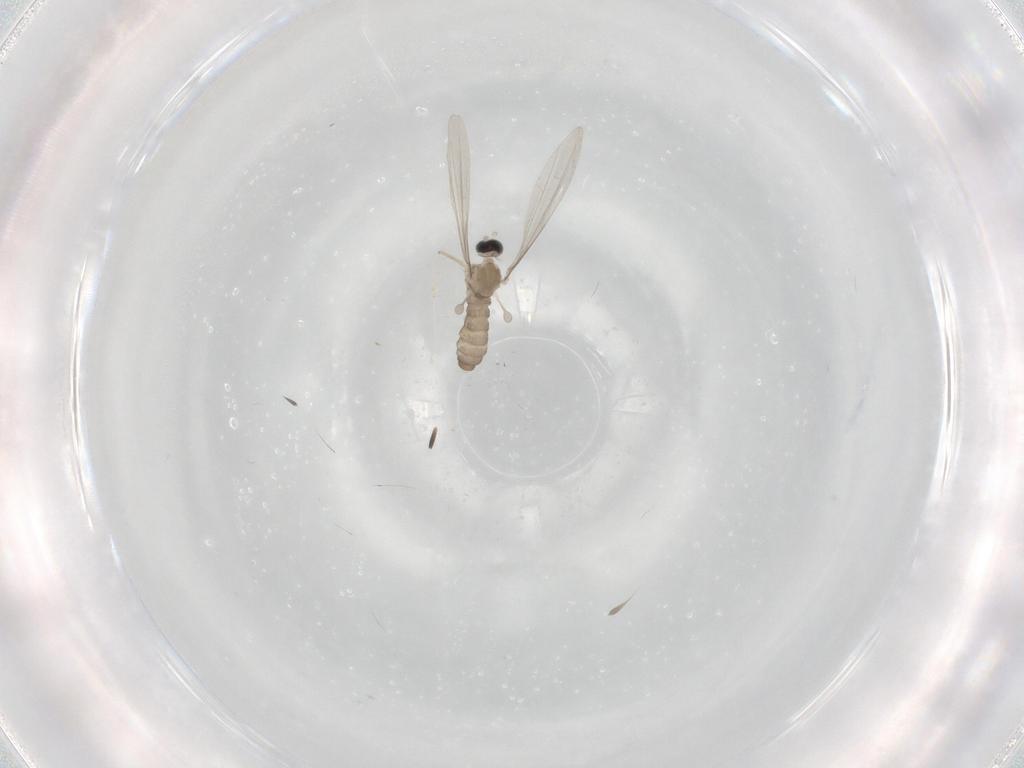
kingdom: Animalia
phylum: Arthropoda
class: Insecta
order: Diptera
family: Cecidomyiidae
